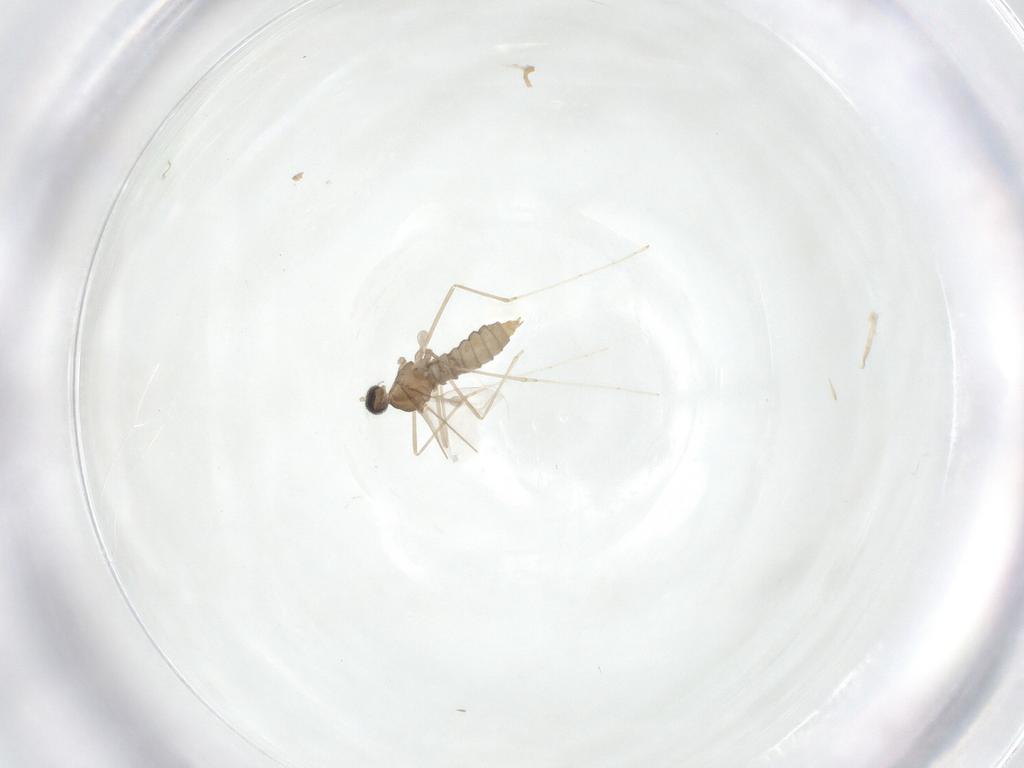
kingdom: Animalia
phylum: Arthropoda
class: Insecta
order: Diptera
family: Cecidomyiidae
